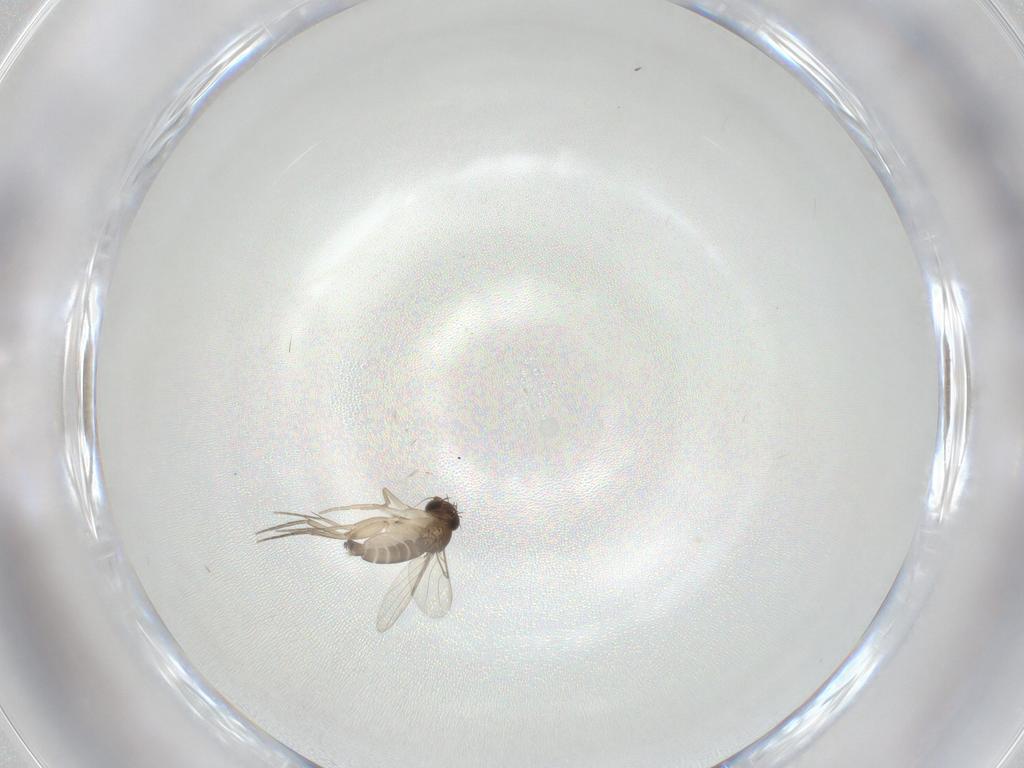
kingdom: Animalia
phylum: Arthropoda
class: Insecta
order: Diptera
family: Phoridae
